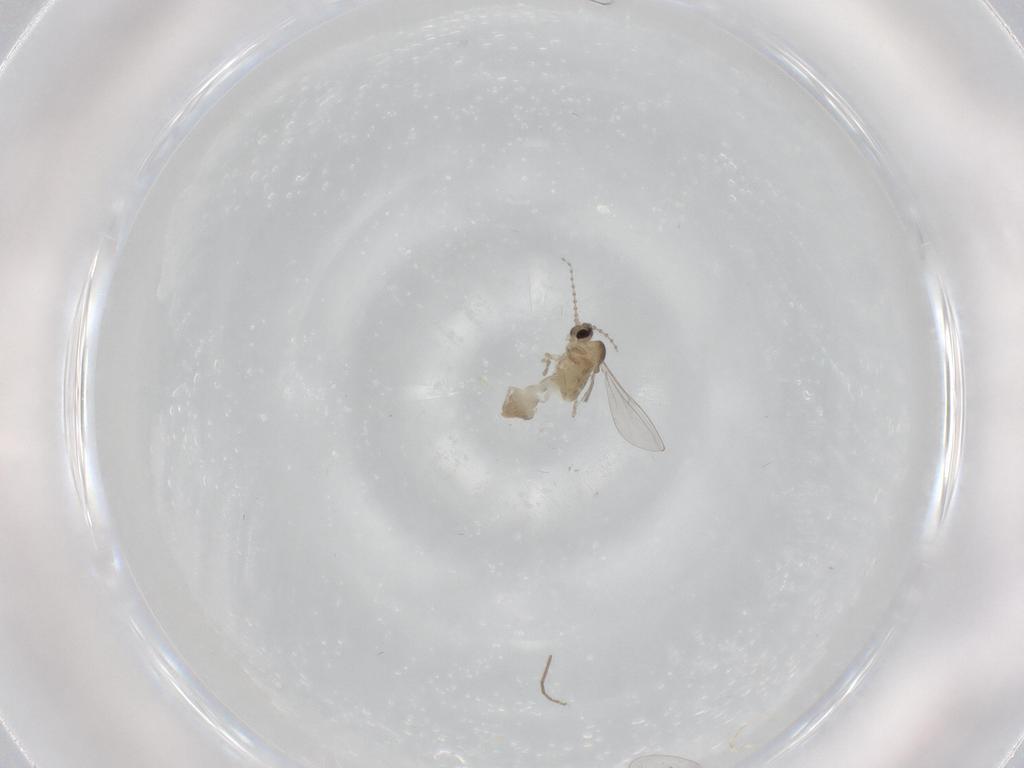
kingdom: Animalia
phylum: Arthropoda
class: Insecta
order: Diptera
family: Cecidomyiidae
